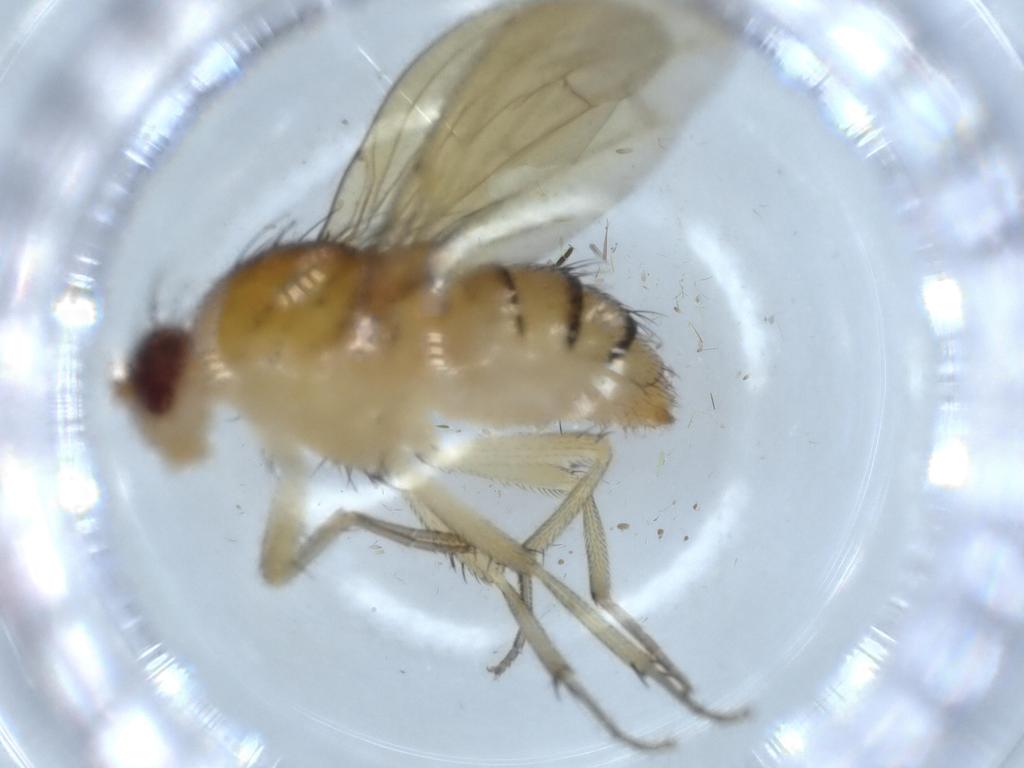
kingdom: Animalia
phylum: Arthropoda
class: Insecta
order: Diptera
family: Sciaridae
